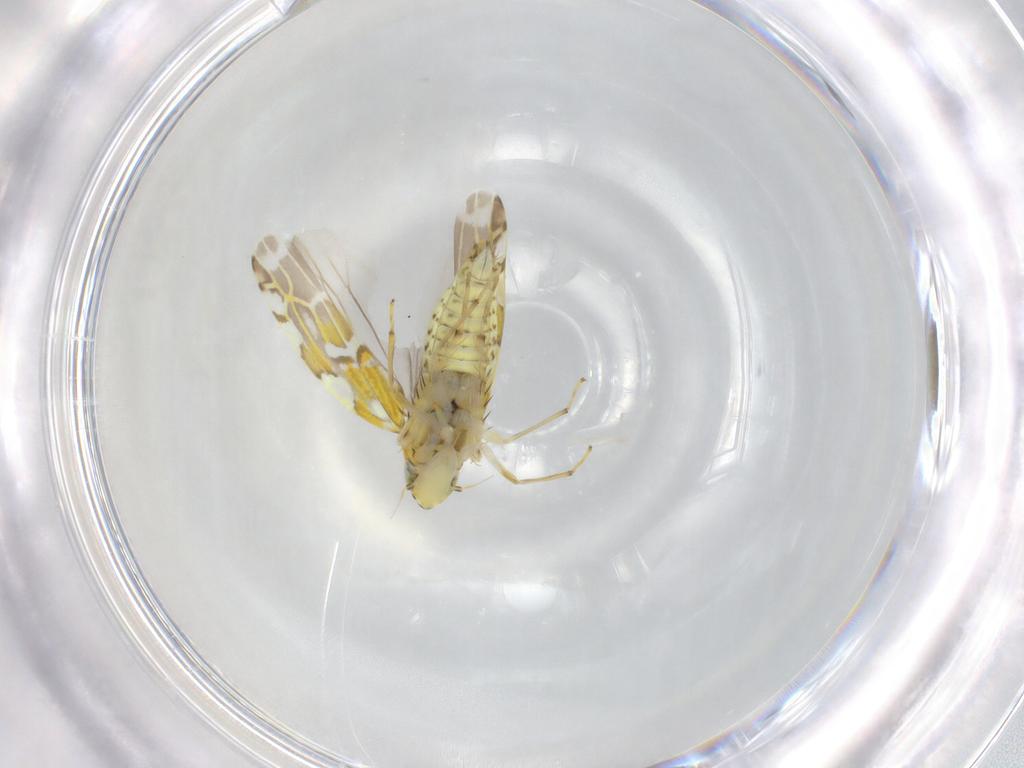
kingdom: Animalia
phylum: Arthropoda
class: Insecta
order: Hemiptera
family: Cicadellidae
